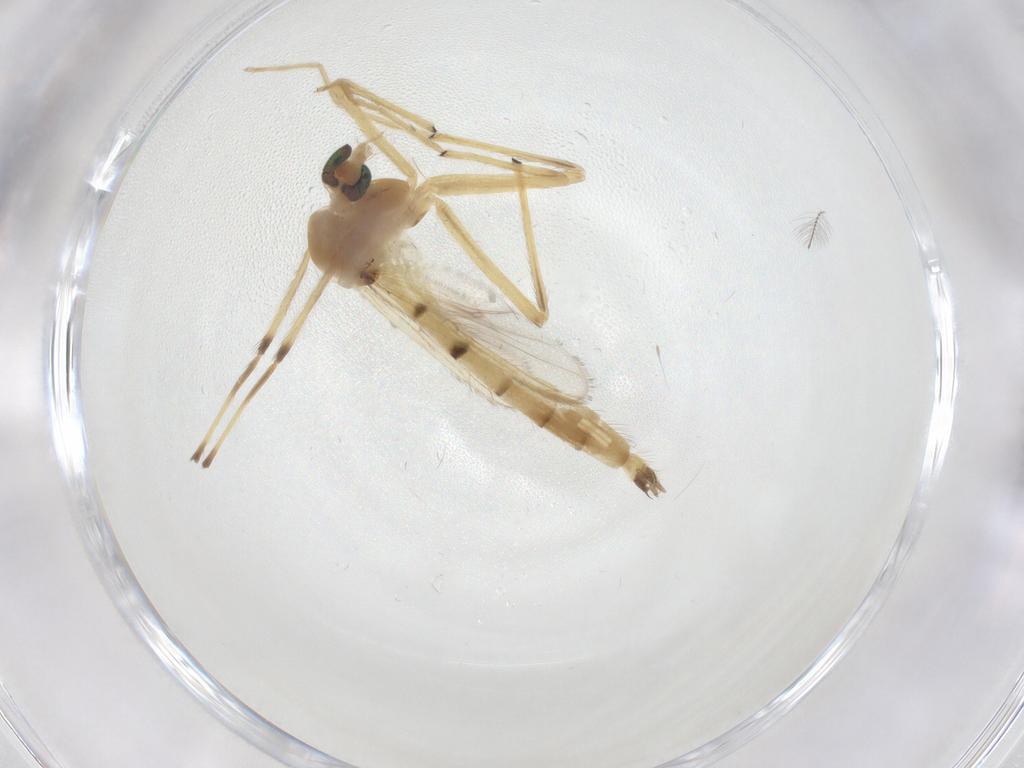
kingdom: Animalia
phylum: Arthropoda
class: Insecta
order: Diptera
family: Chironomidae
